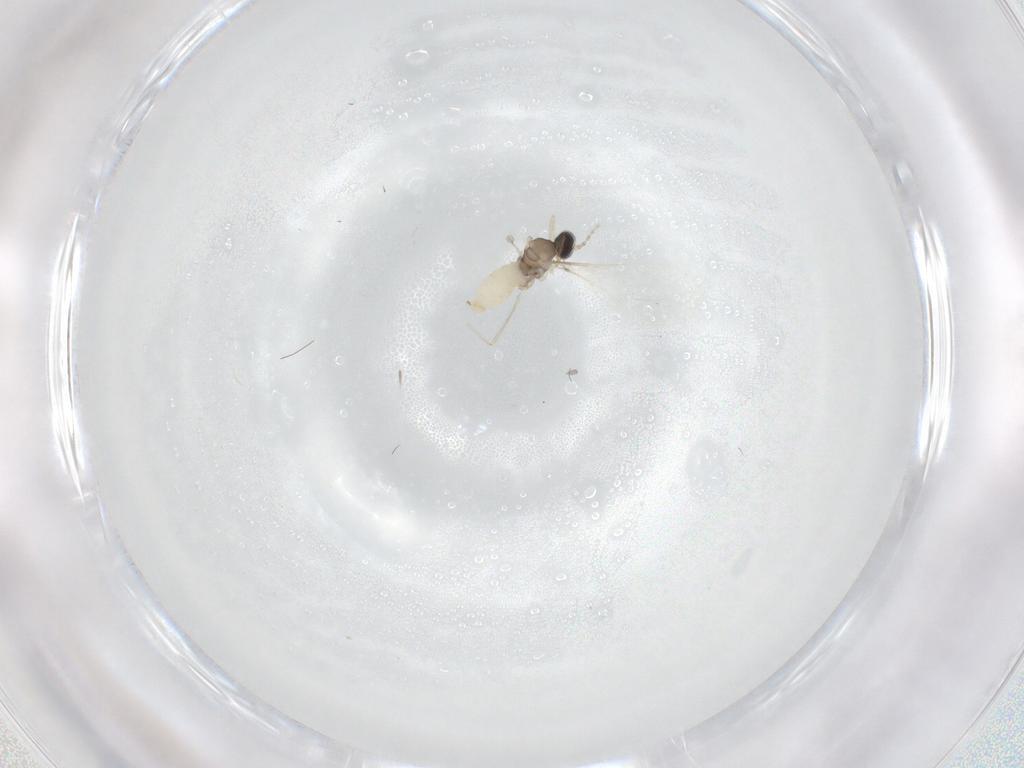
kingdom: Animalia
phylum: Arthropoda
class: Insecta
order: Diptera
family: Cecidomyiidae
